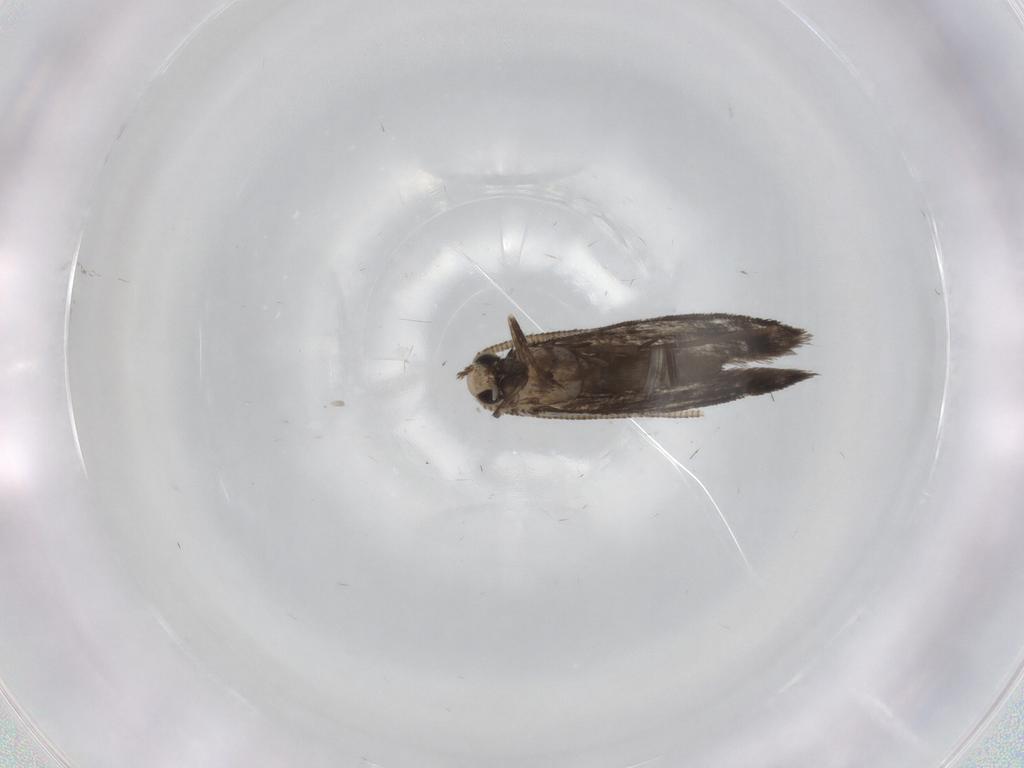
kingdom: Animalia
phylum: Arthropoda
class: Insecta
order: Lepidoptera
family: Nymphalidae
